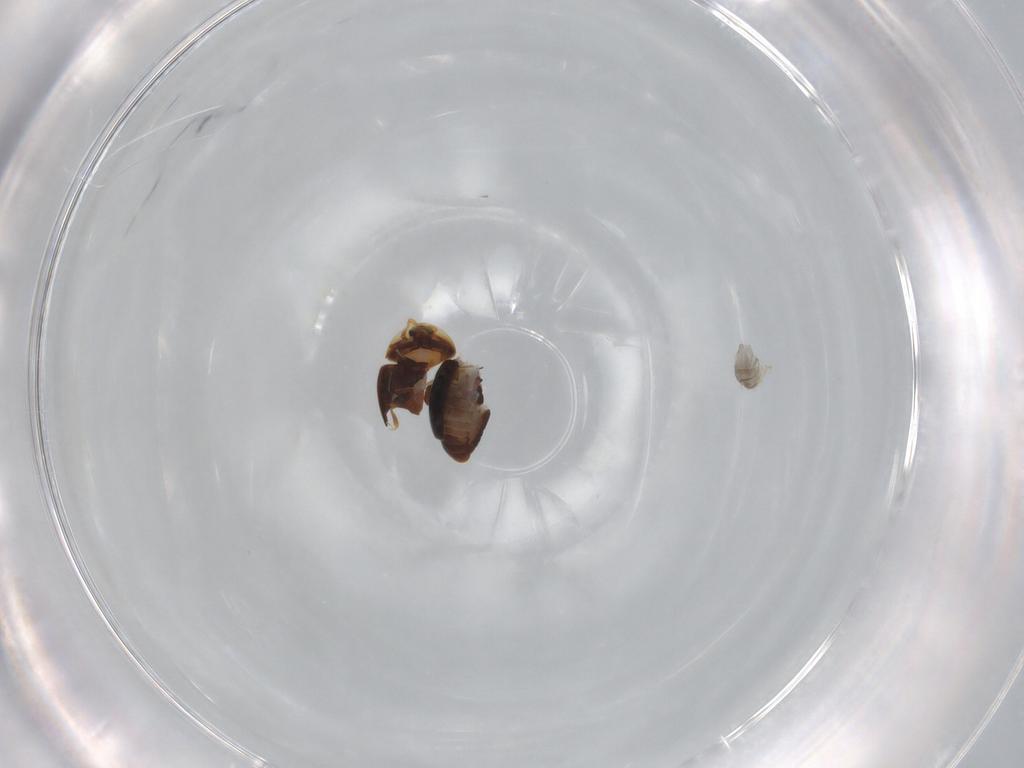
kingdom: Animalia
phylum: Arthropoda
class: Insecta
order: Coleoptera
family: Corylophidae
